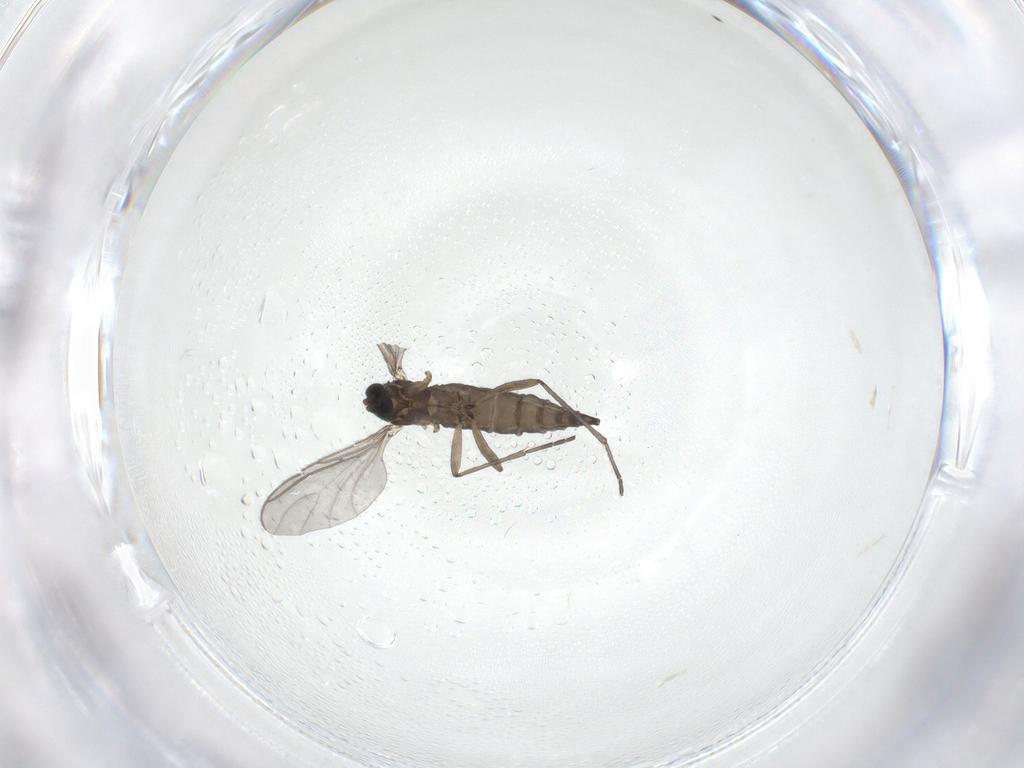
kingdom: Animalia
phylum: Arthropoda
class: Insecta
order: Diptera
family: Sciaridae
